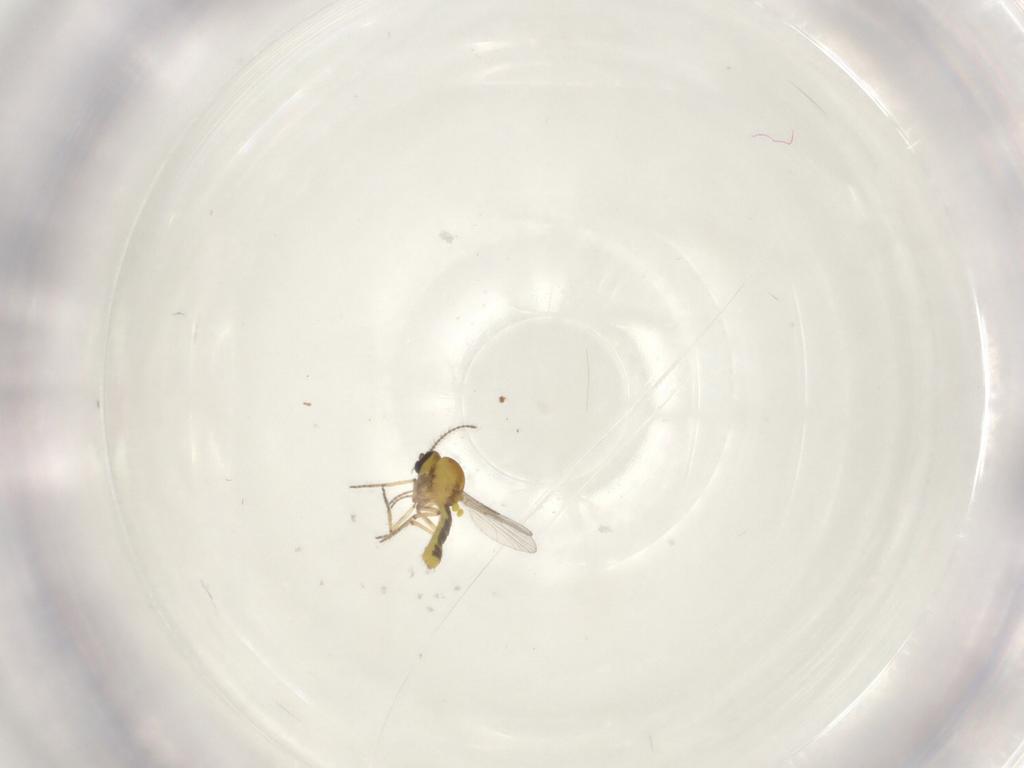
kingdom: Animalia
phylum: Arthropoda
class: Insecta
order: Diptera
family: Ceratopogonidae
